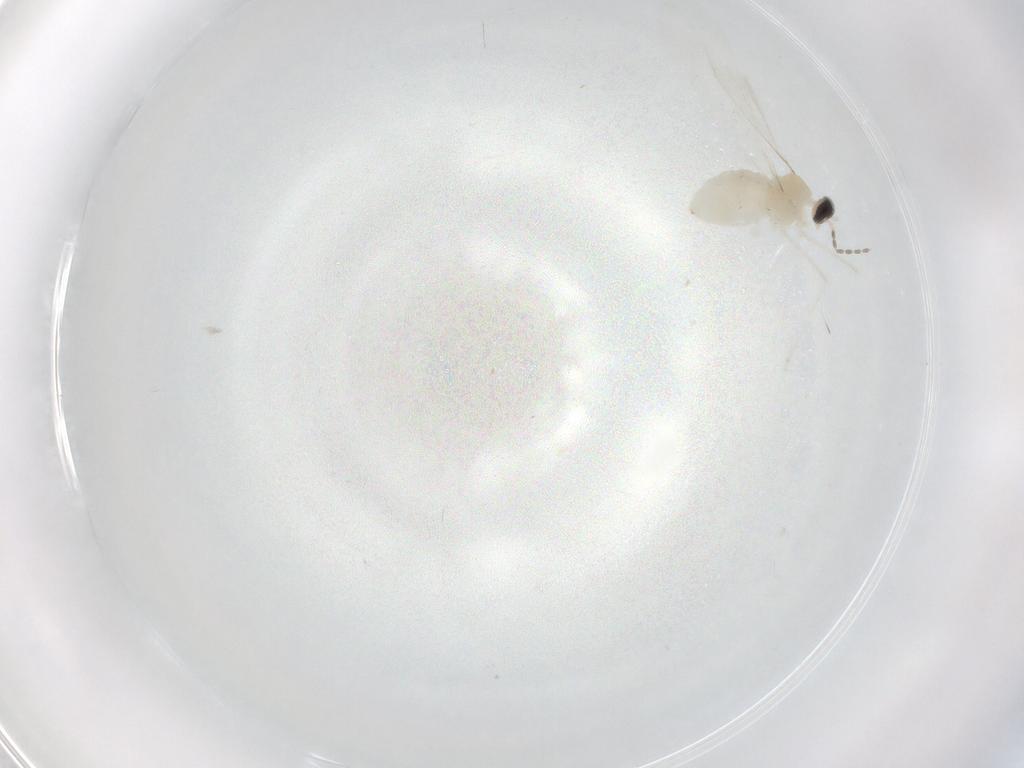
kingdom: Animalia
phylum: Arthropoda
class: Insecta
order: Diptera
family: Cecidomyiidae
